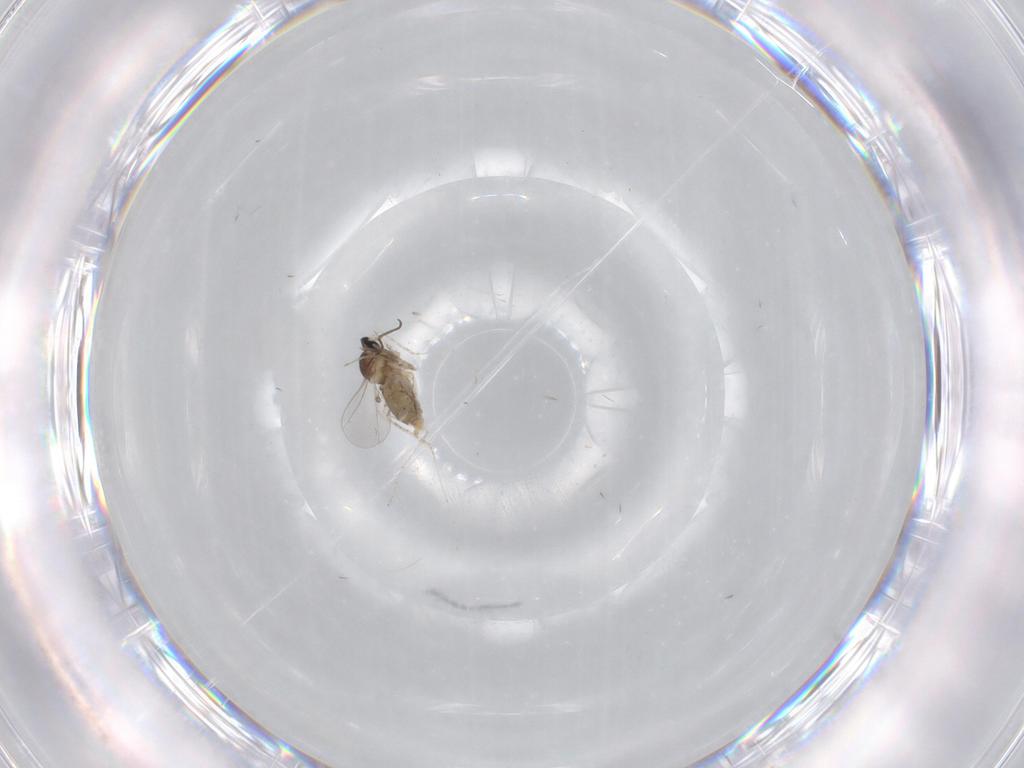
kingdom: Animalia
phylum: Arthropoda
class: Insecta
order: Diptera
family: Cecidomyiidae
